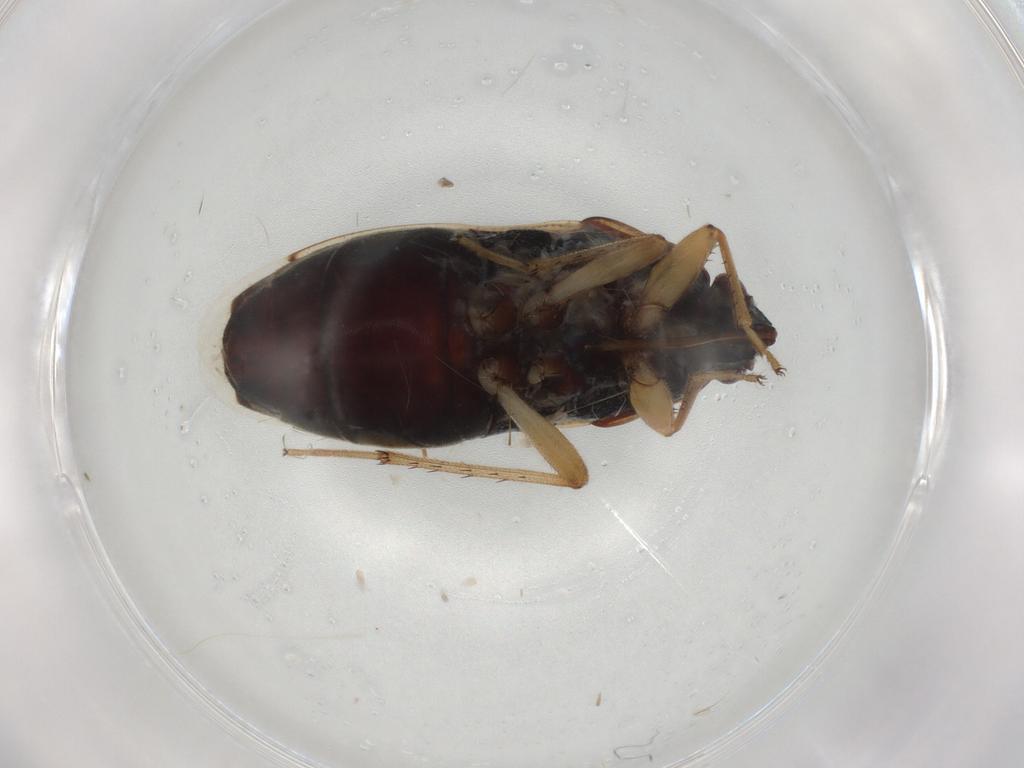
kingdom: Animalia
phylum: Arthropoda
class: Insecta
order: Hemiptera
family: Rhyparochromidae
